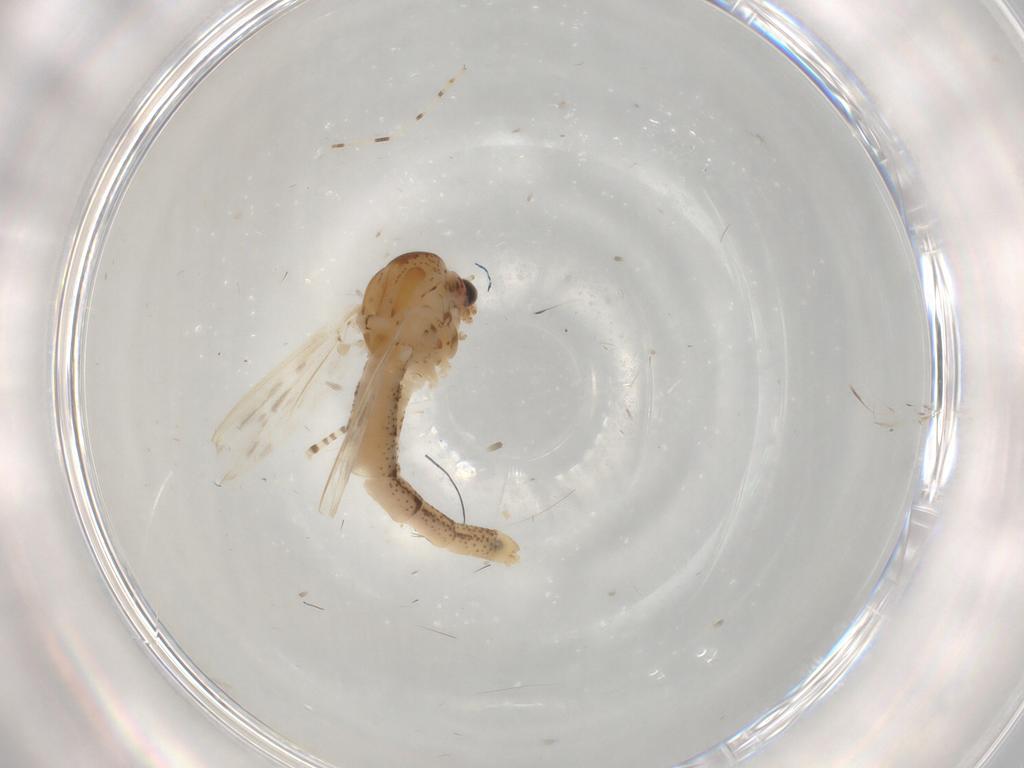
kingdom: Animalia
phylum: Arthropoda
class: Insecta
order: Diptera
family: Chaoboridae
